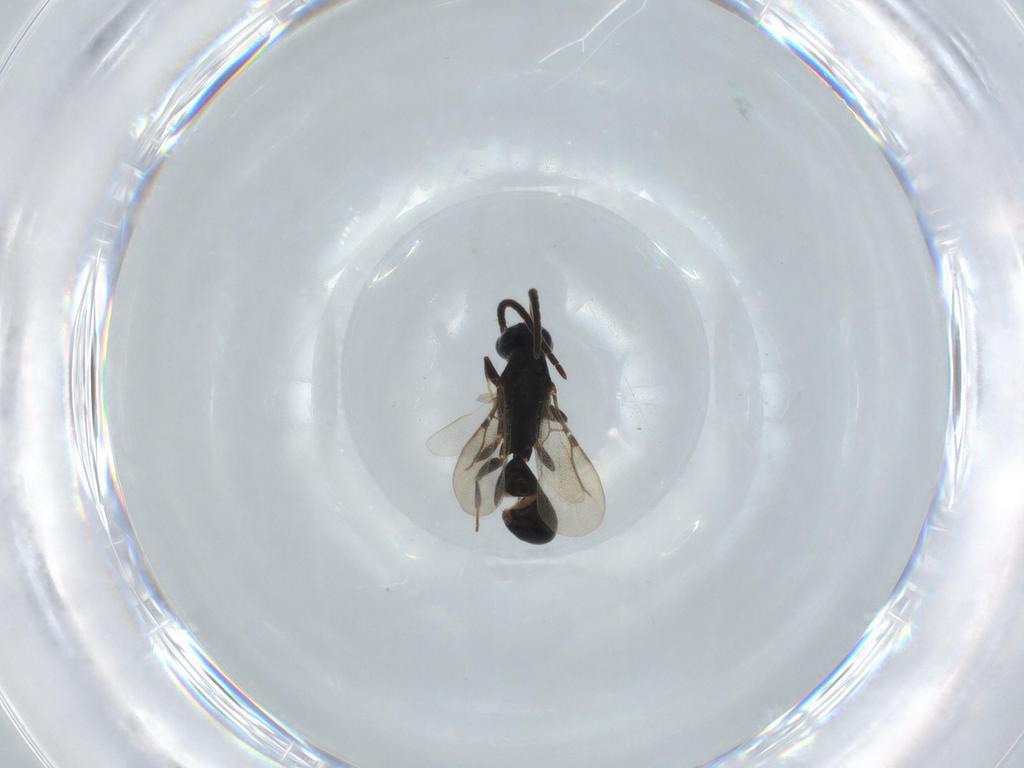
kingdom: Animalia
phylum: Arthropoda
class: Insecta
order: Hymenoptera
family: Bethylidae
